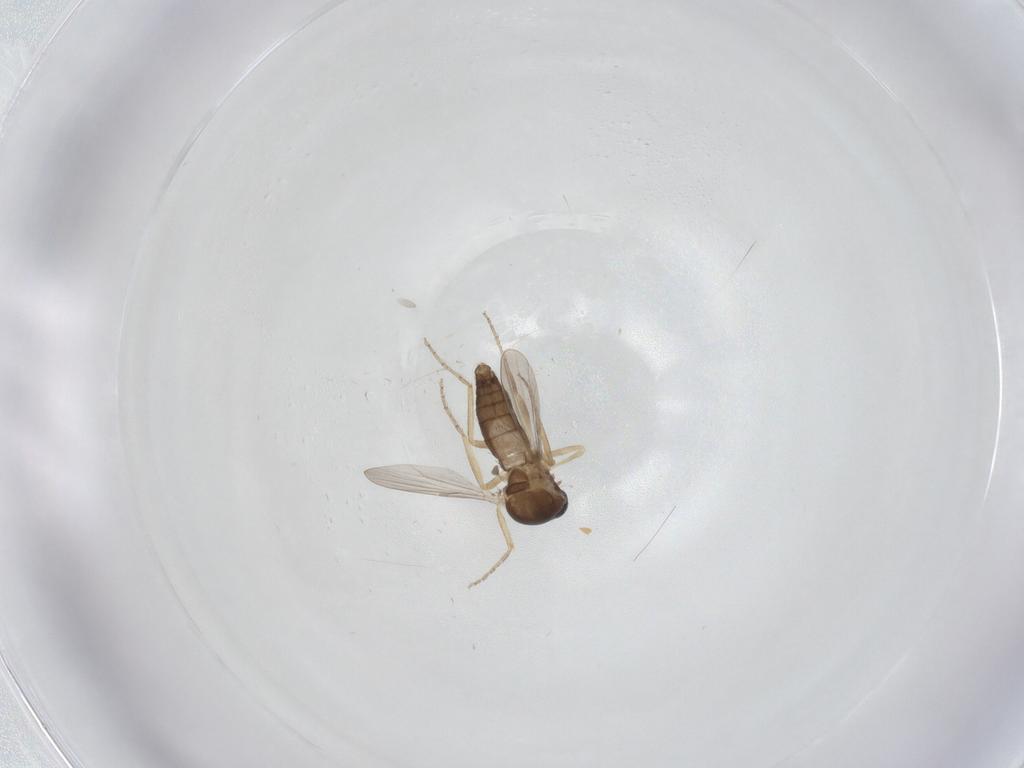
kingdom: Animalia
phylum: Arthropoda
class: Insecta
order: Diptera
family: Ceratopogonidae
